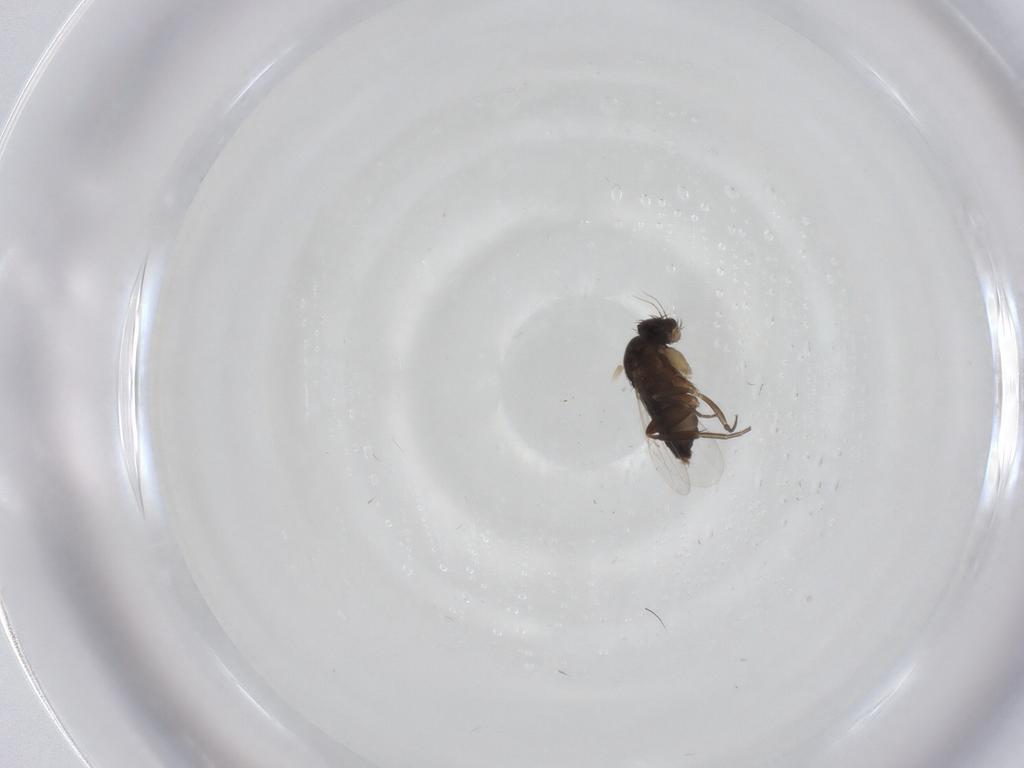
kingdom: Animalia
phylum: Arthropoda
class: Insecta
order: Diptera
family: Phoridae
